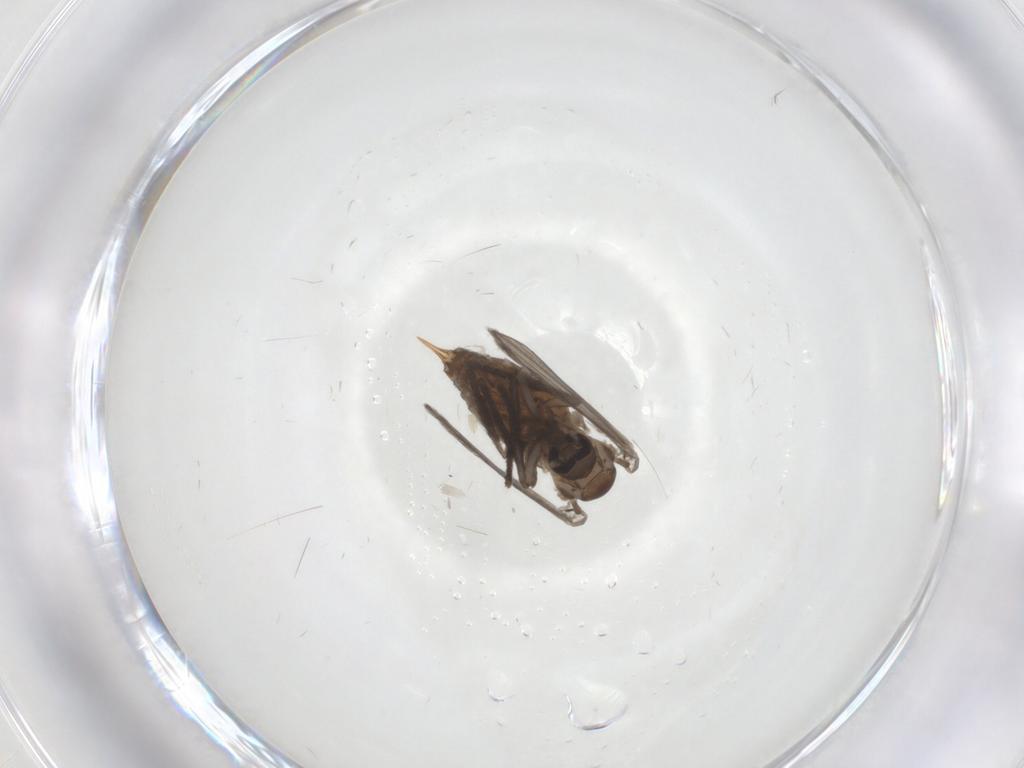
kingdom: Animalia
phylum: Arthropoda
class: Insecta
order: Diptera
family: Psychodidae
